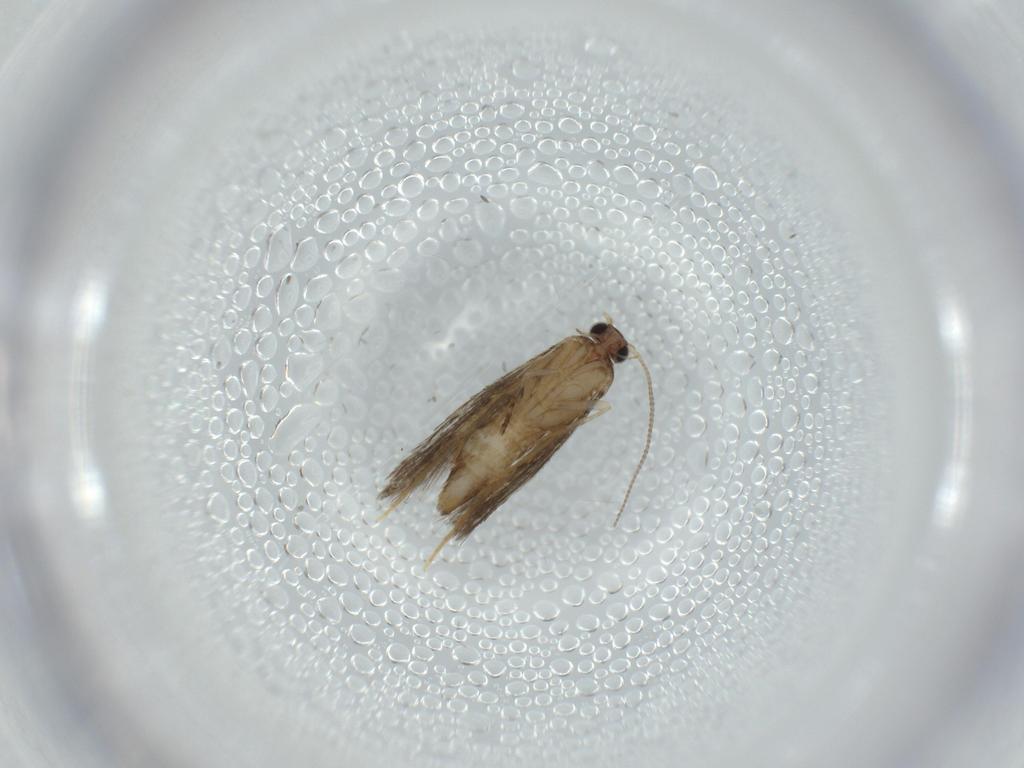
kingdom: Animalia
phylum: Arthropoda
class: Insecta
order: Lepidoptera
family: Tineidae
